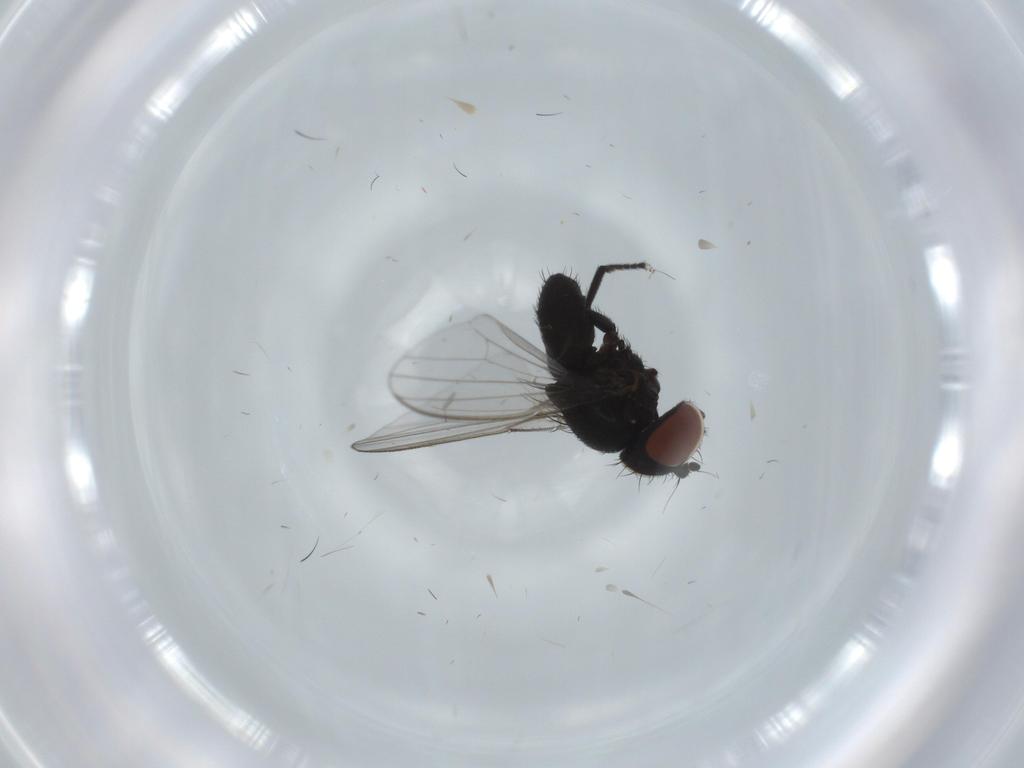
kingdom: Animalia
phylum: Arthropoda
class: Insecta
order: Diptera
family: Milichiidae
